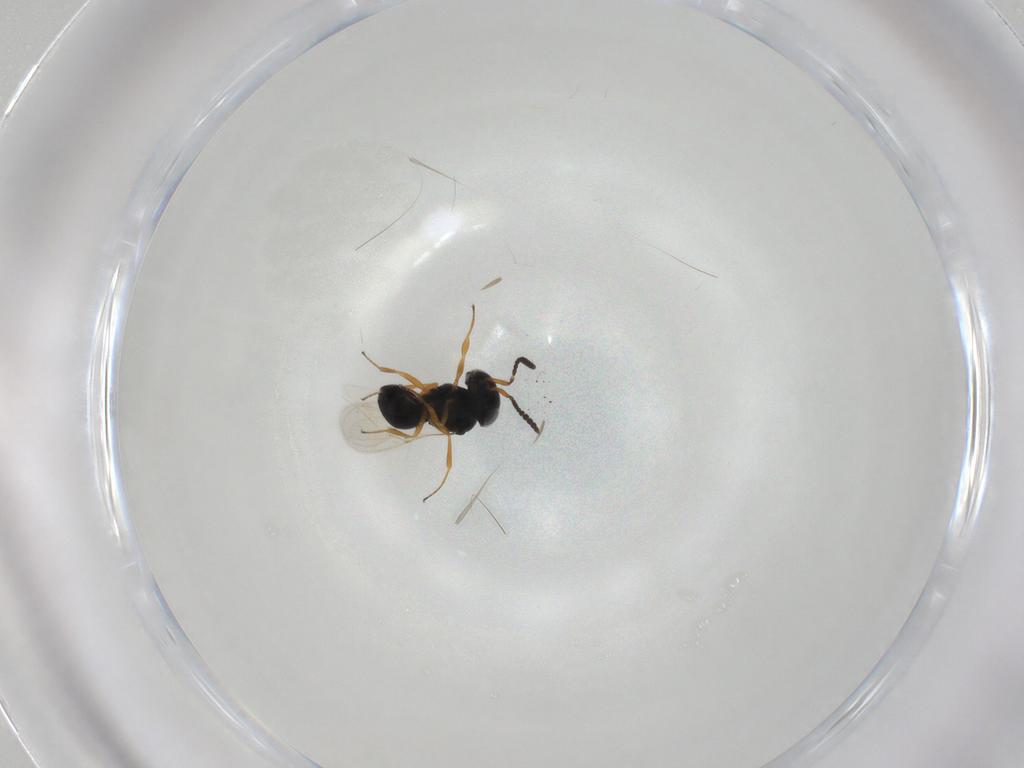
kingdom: Animalia
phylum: Arthropoda
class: Insecta
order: Hymenoptera
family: Scelionidae
